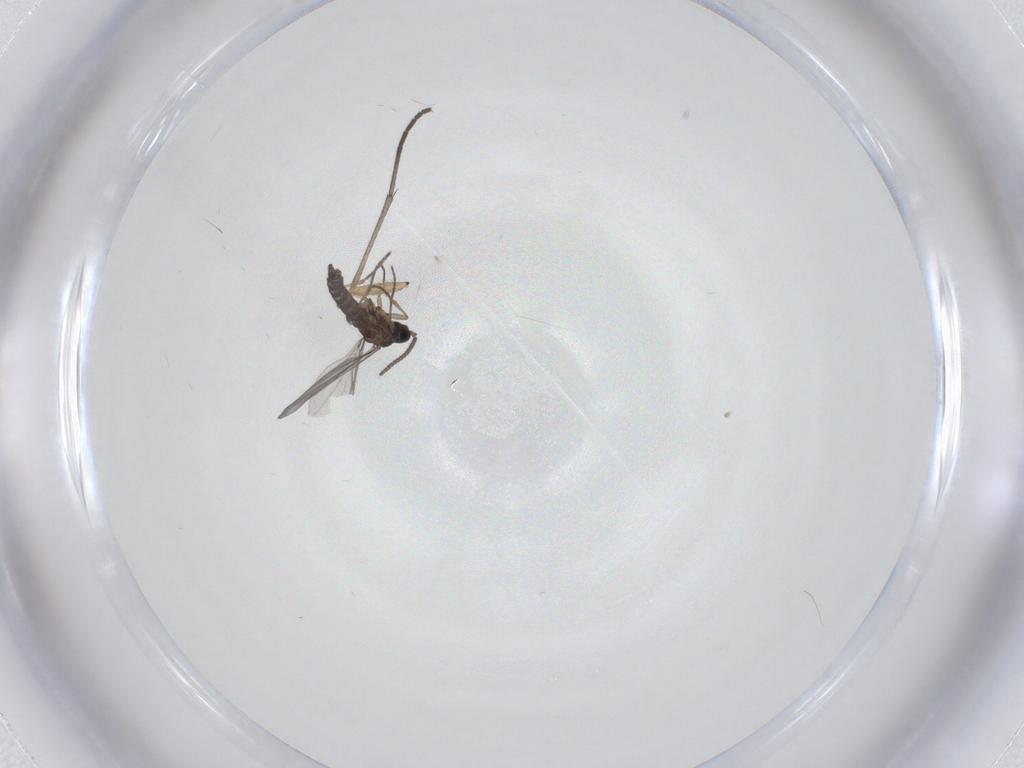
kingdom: Animalia
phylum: Arthropoda
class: Insecta
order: Diptera
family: Sciaridae
